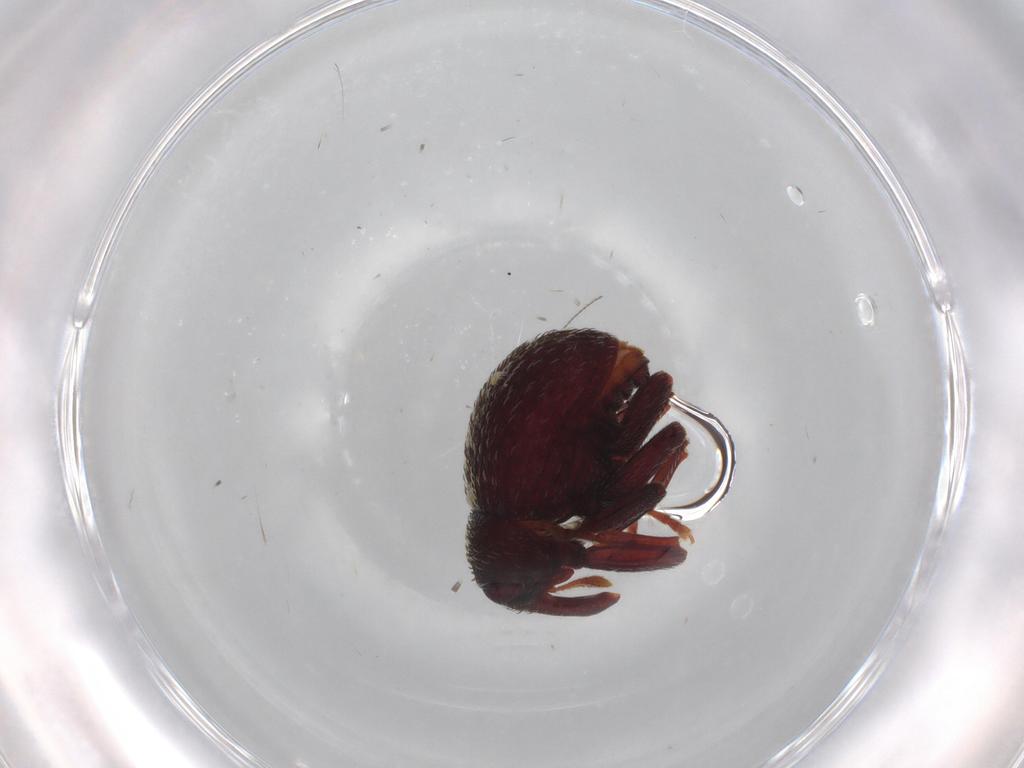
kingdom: Animalia
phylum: Arthropoda
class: Insecta
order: Coleoptera
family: Curculionidae
